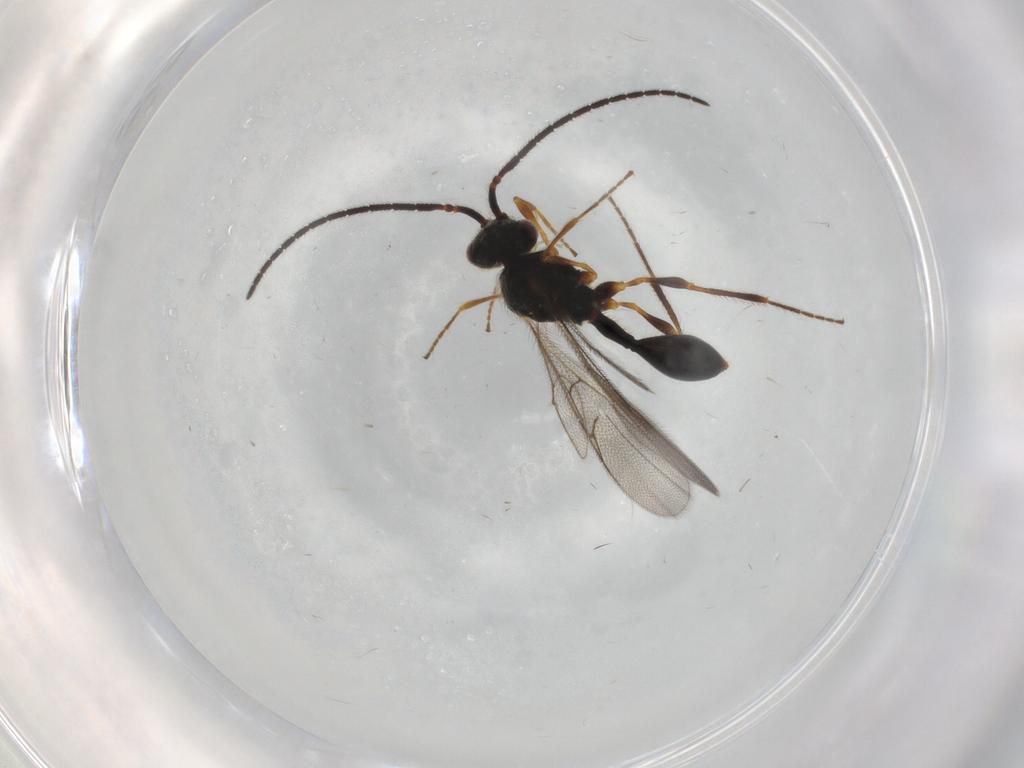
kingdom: Animalia
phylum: Arthropoda
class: Insecta
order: Hymenoptera
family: Diapriidae
